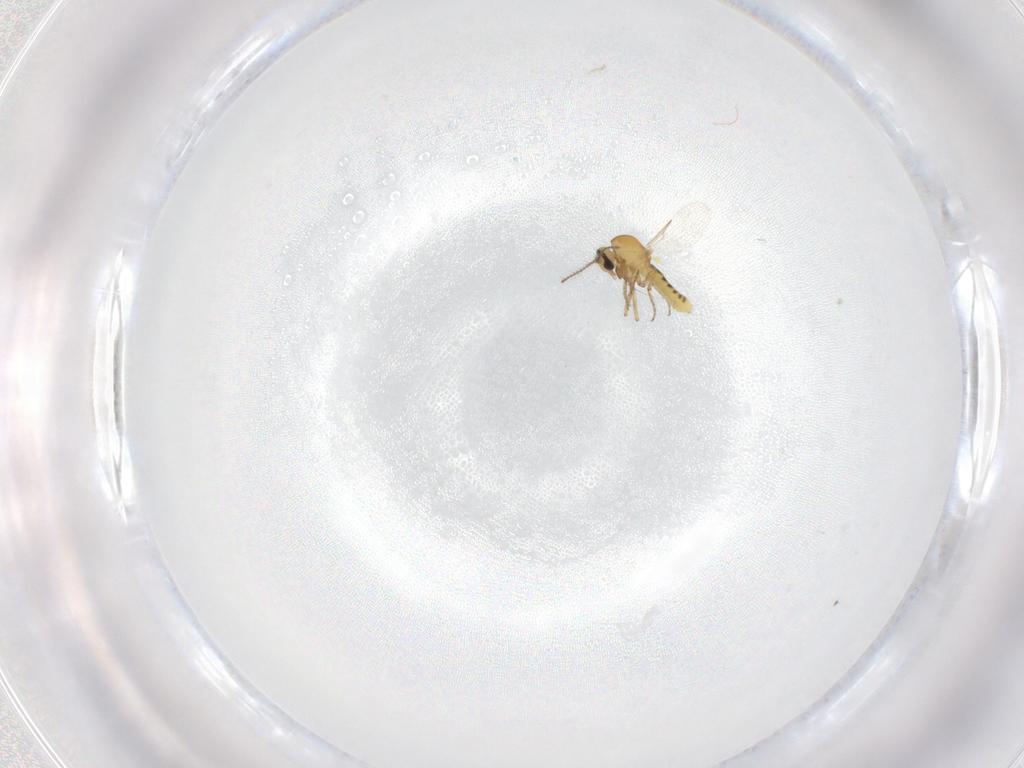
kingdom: Animalia
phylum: Arthropoda
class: Insecta
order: Diptera
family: Ceratopogonidae
